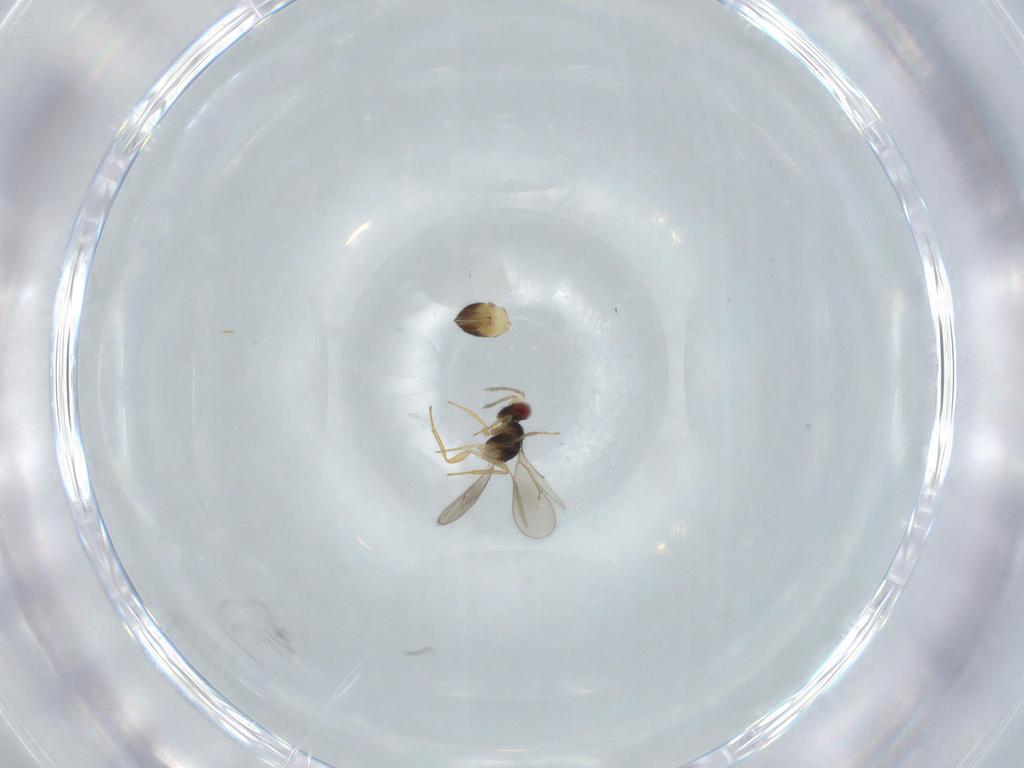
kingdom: Animalia
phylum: Arthropoda
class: Insecta
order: Hymenoptera
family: Eulophidae
